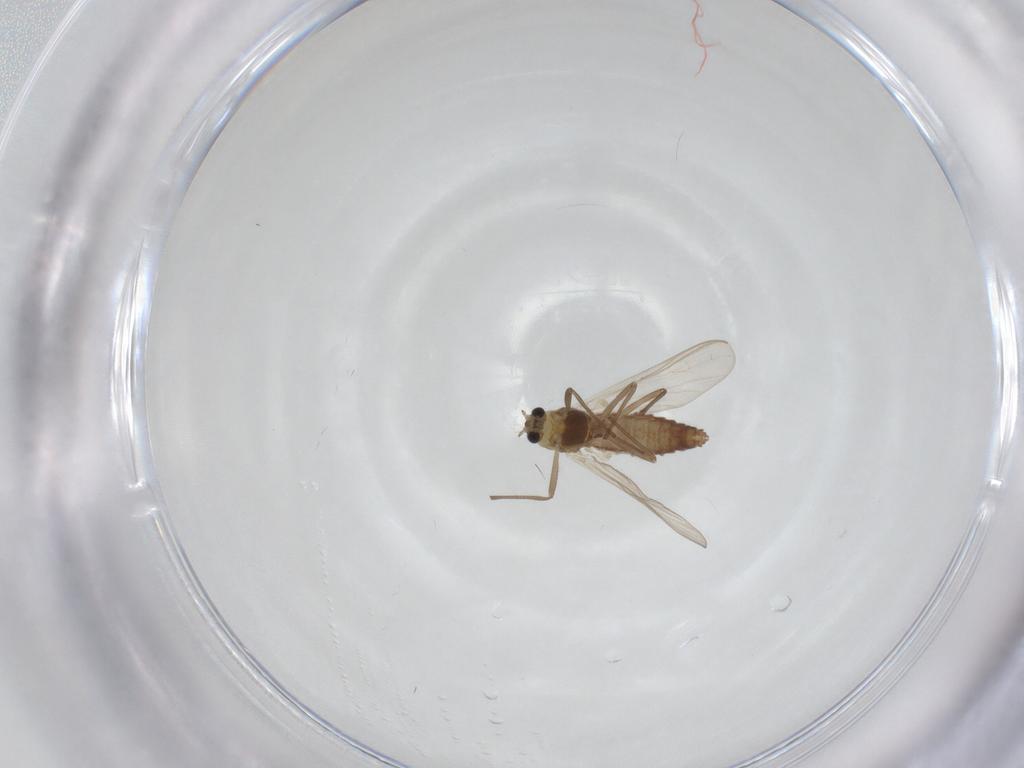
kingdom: Animalia
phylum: Arthropoda
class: Insecta
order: Diptera
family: Chironomidae
